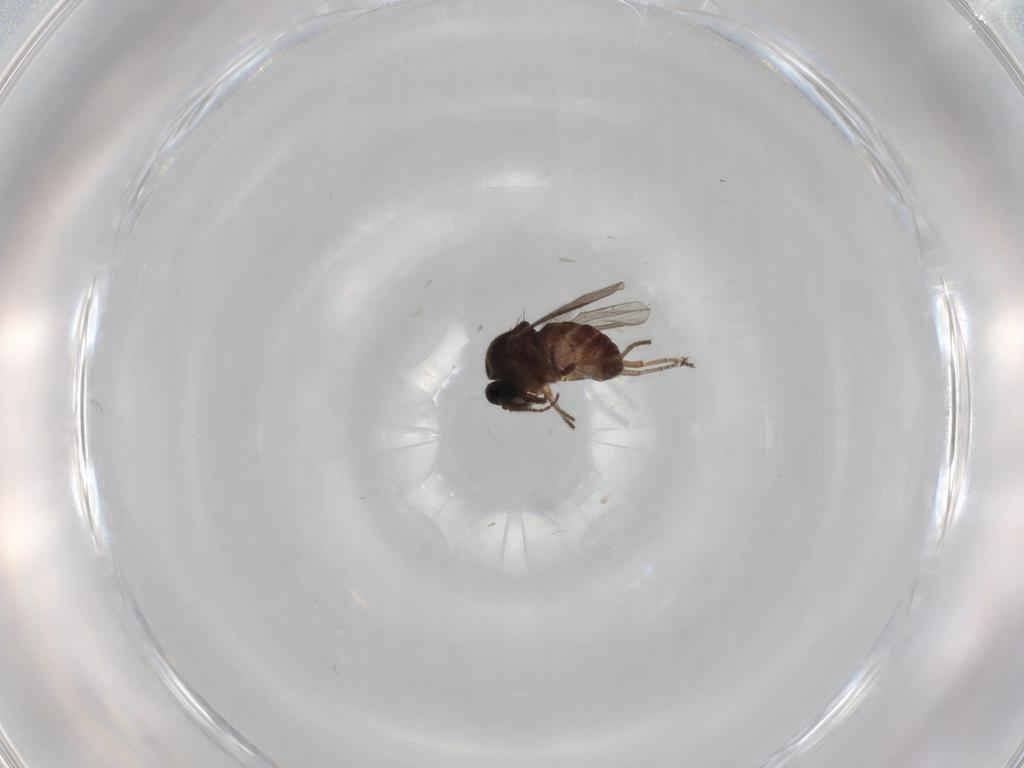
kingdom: Animalia
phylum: Arthropoda
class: Insecta
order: Diptera
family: Ceratopogonidae
